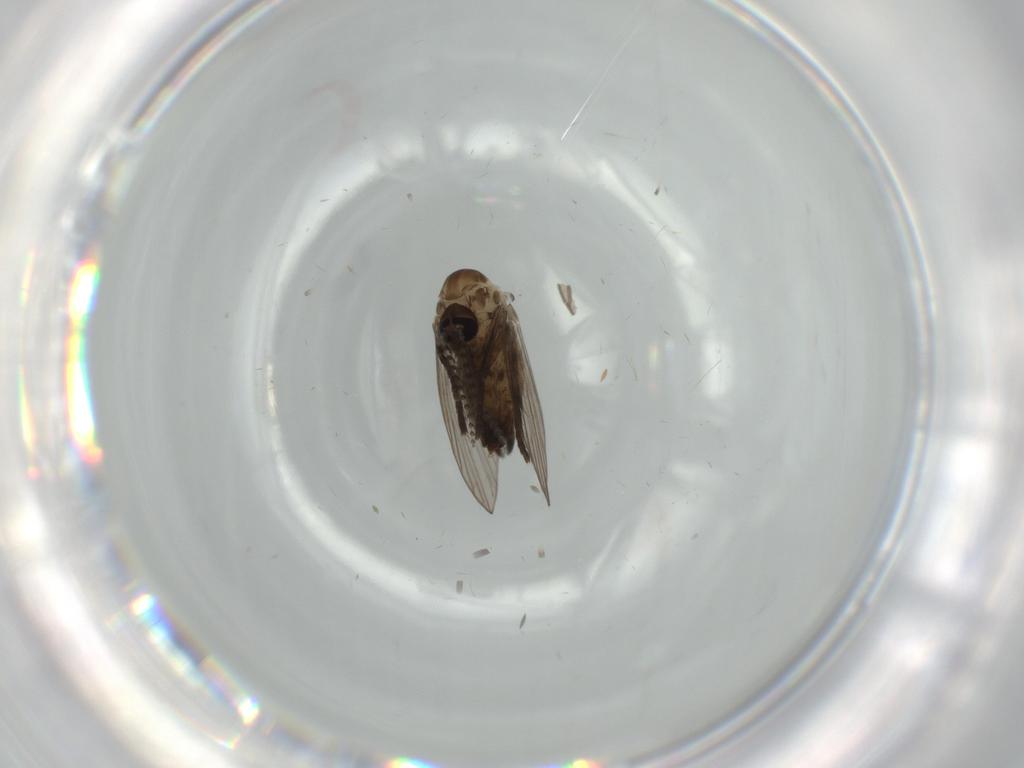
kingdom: Animalia
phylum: Arthropoda
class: Insecta
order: Diptera
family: Psychodidae
